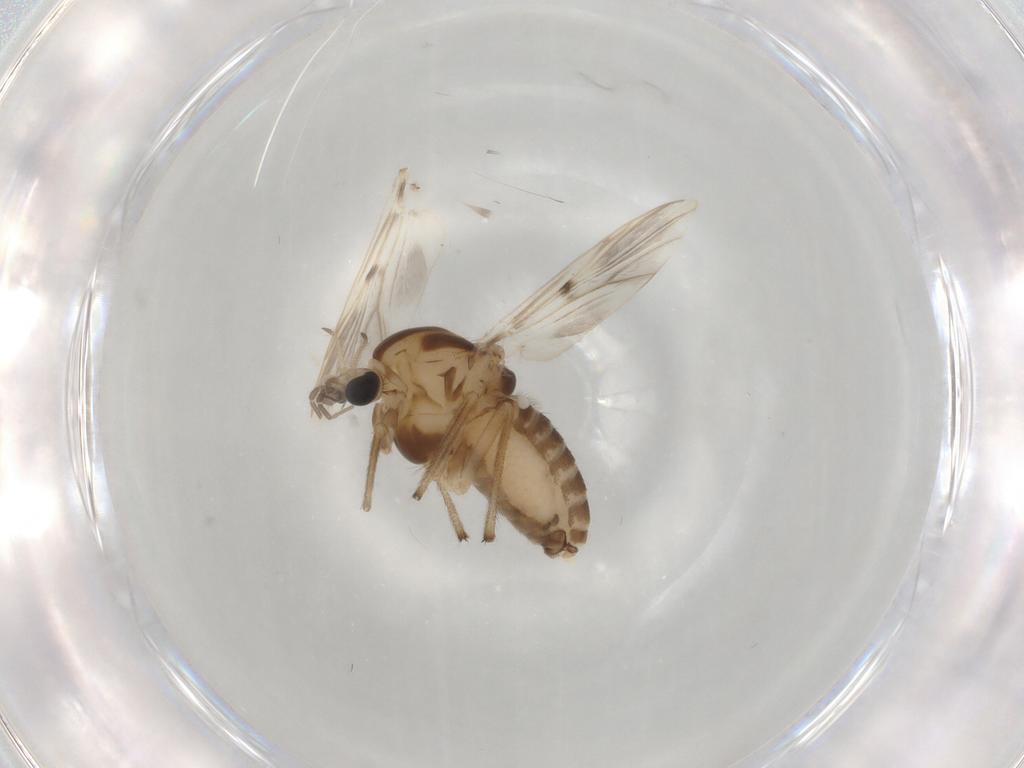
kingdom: Animalia
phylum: Arthropoda
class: Insecta
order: Diptera
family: Chironomidae
